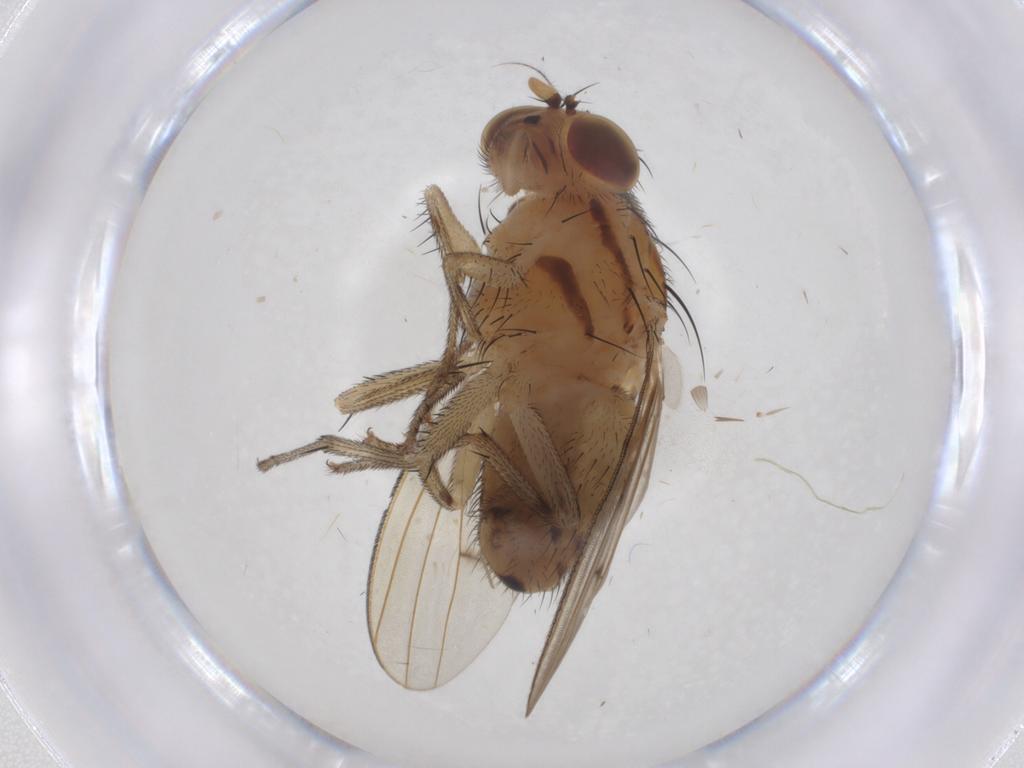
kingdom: Animalia
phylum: Arthropoda
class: Insecta
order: Diptera
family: Lauxaniidae
